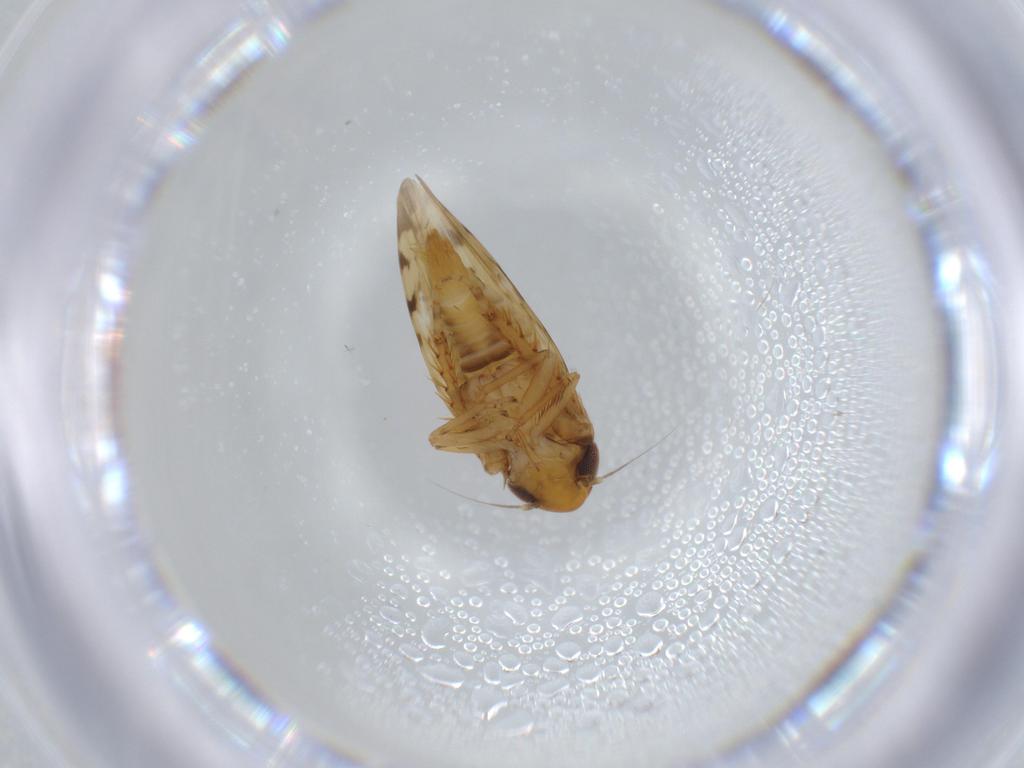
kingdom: Animalia
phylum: Arthropoda
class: Insecta
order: Hemiptera
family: Cicadellidae
